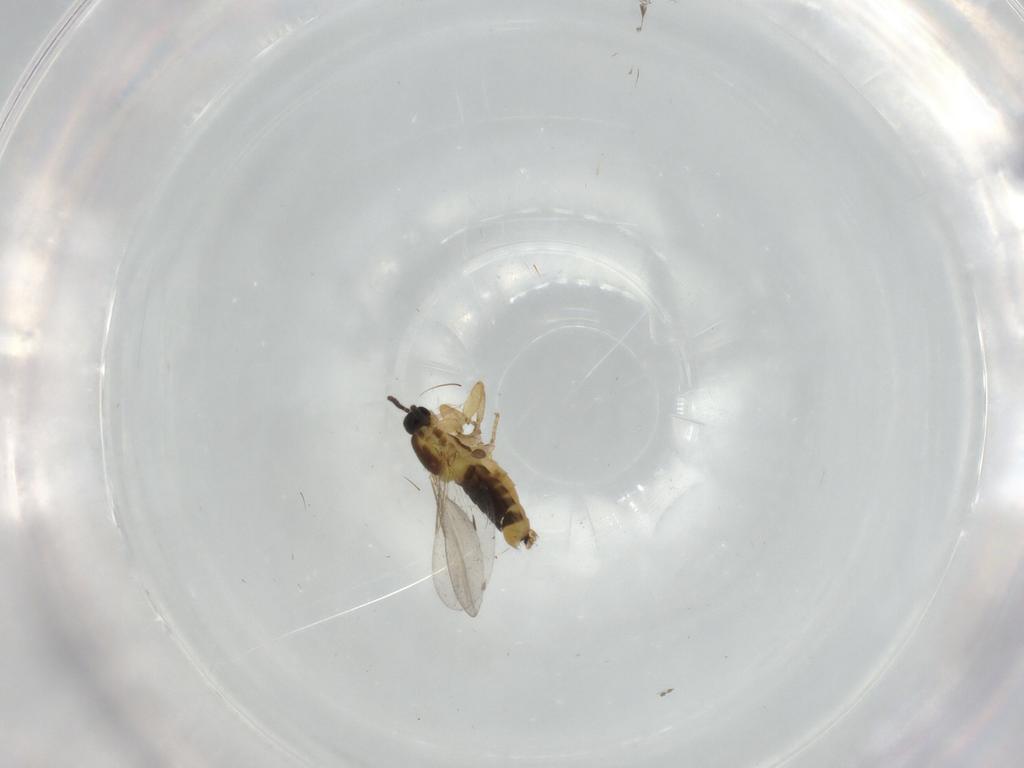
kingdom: Animalia
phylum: Arthropoda
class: Insecta
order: Diptera
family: Scatopsidae
